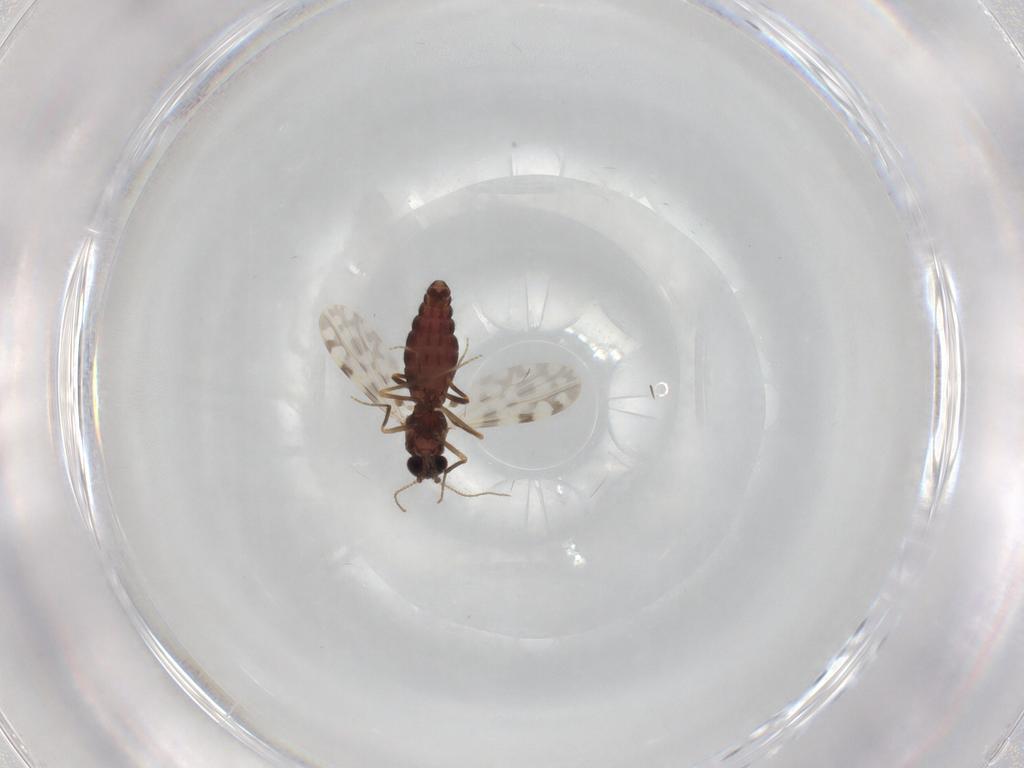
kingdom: Animalia
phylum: Arthropoda
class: Insecta
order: Diptera
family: Ceratopogonidae
